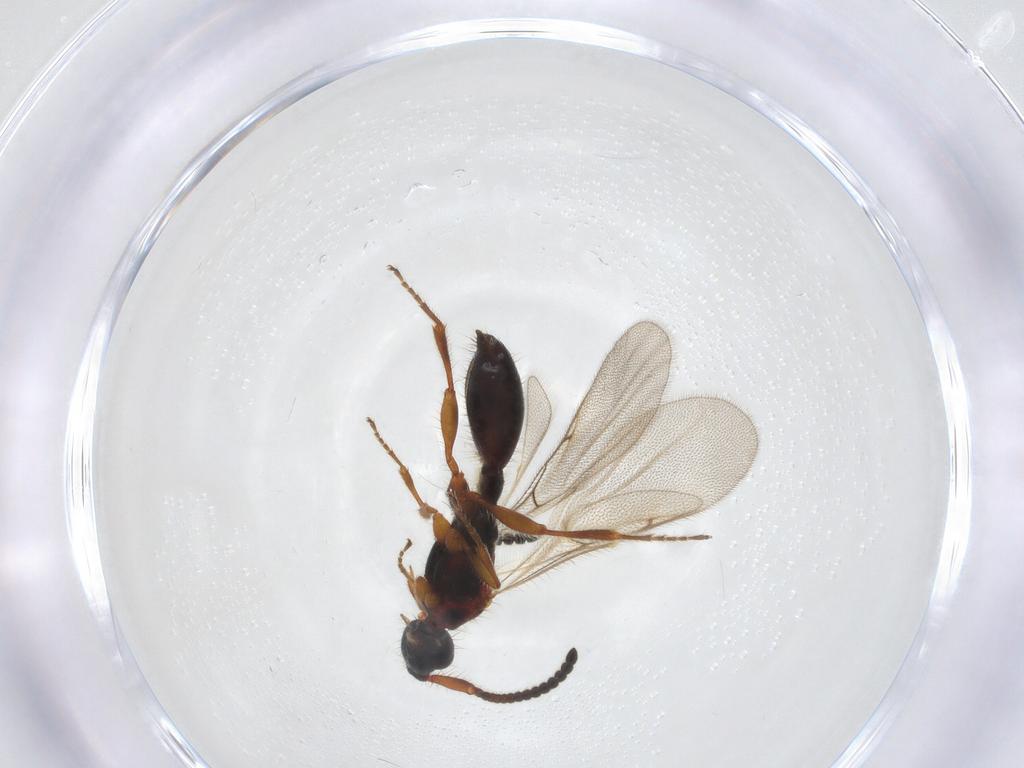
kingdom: Animalia
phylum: Arthropoda
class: Insecta
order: Hymenoptera
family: Diapriidae
